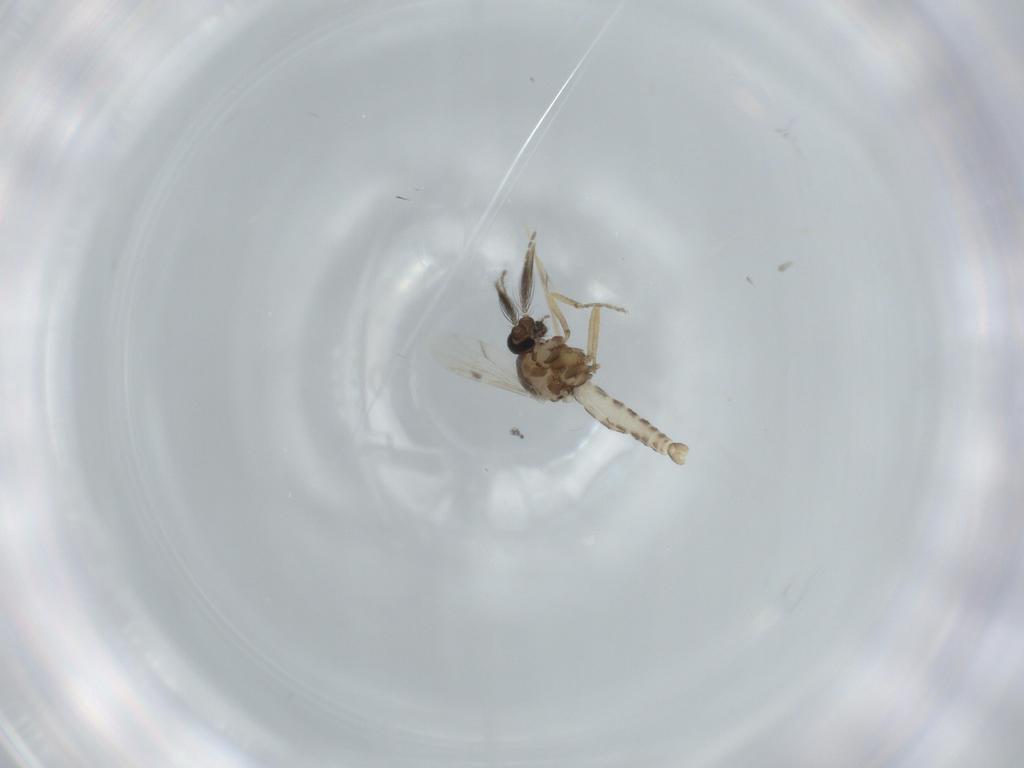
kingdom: Animalia
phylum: Arthropoda
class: Insecta
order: Diptera
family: Ceratopogonidae
